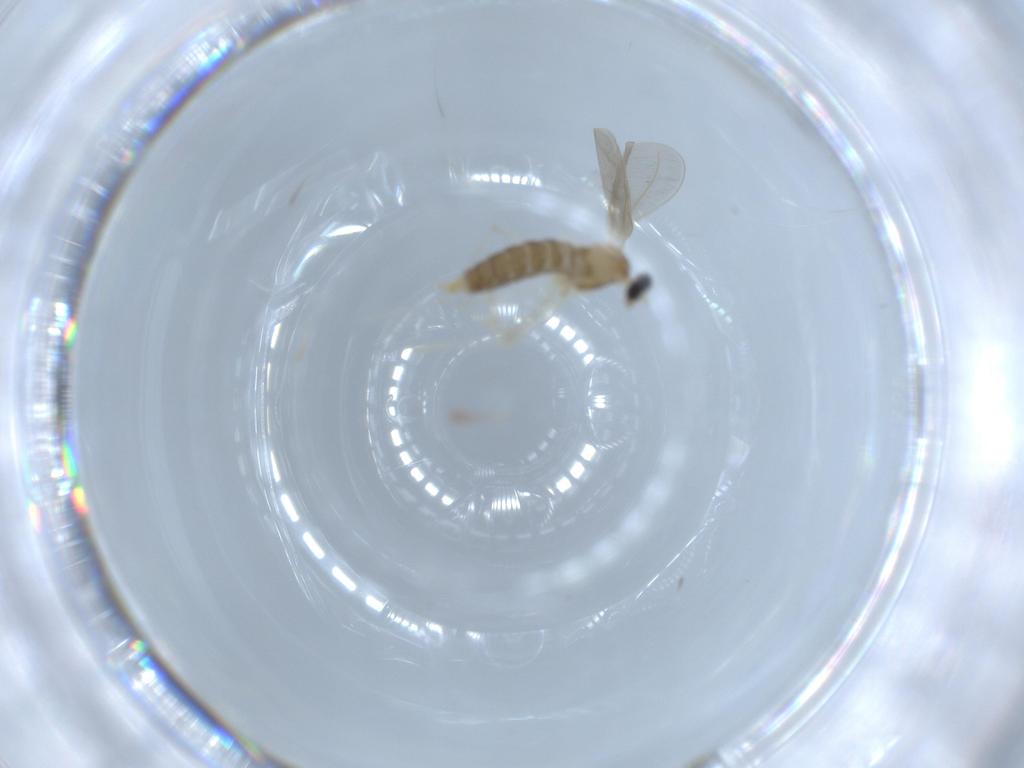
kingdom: Animalia
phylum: Arthropoda
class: Insecta
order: Diptera
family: Cecidomyiidae
